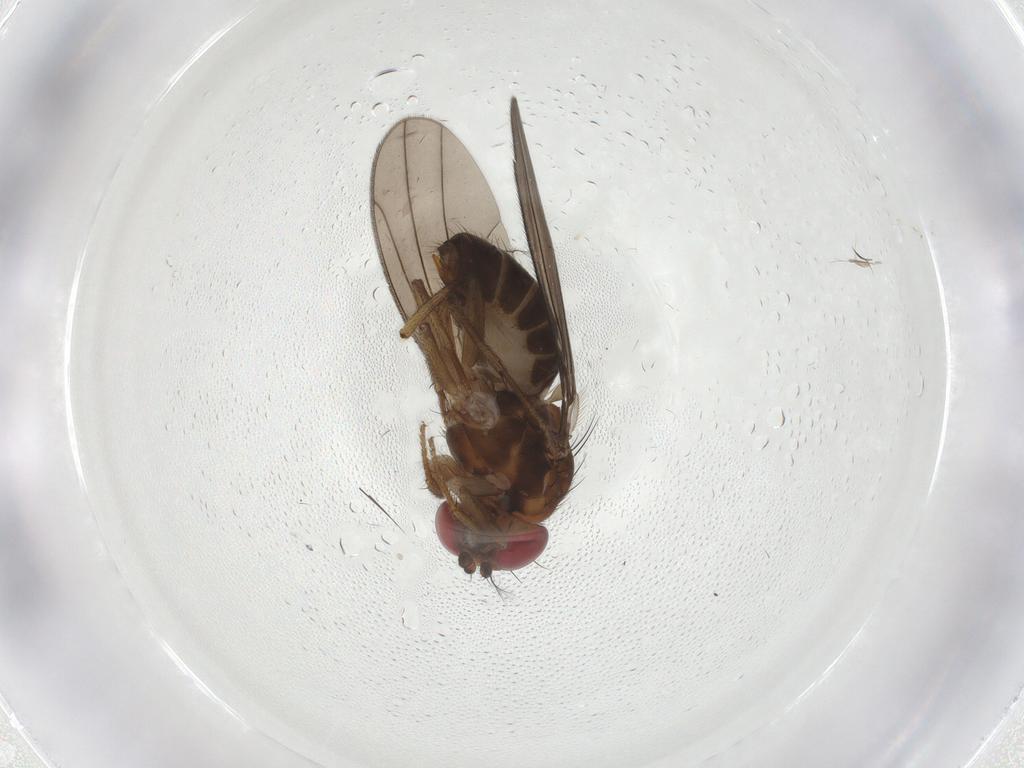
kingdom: Animalia
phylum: Arthropoda
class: Insecta
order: Diptera
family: Drosophilidae
